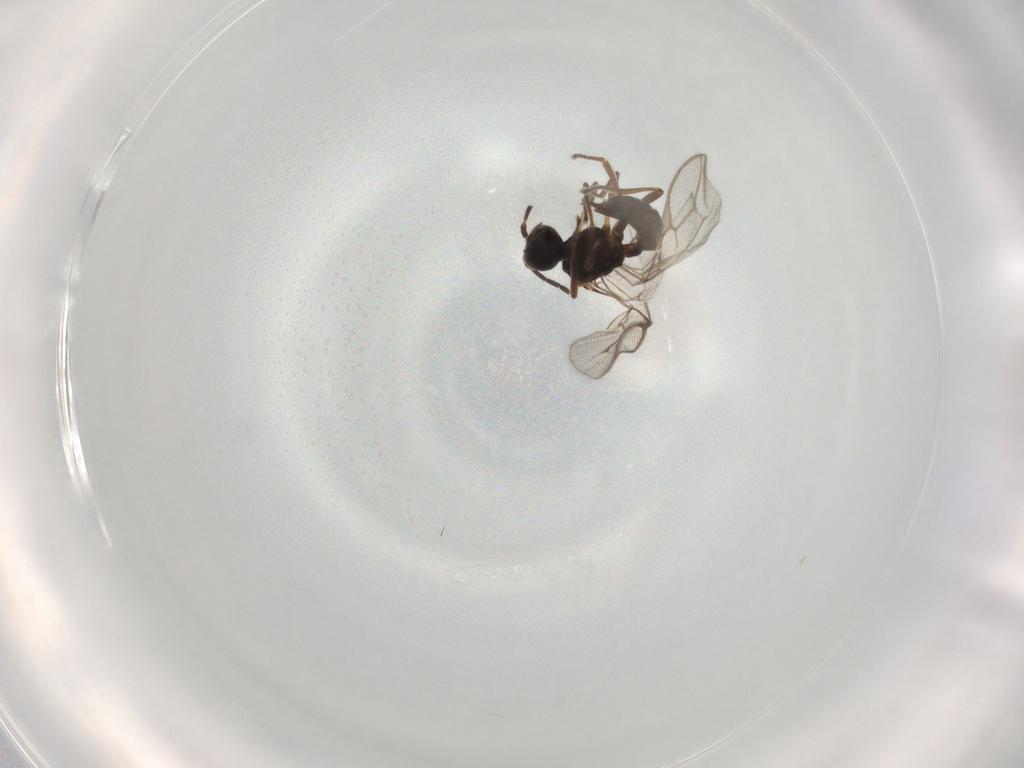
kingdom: Animalia
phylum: Arthropoda
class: Insecta
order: Hymenoptera
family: Braconidae
